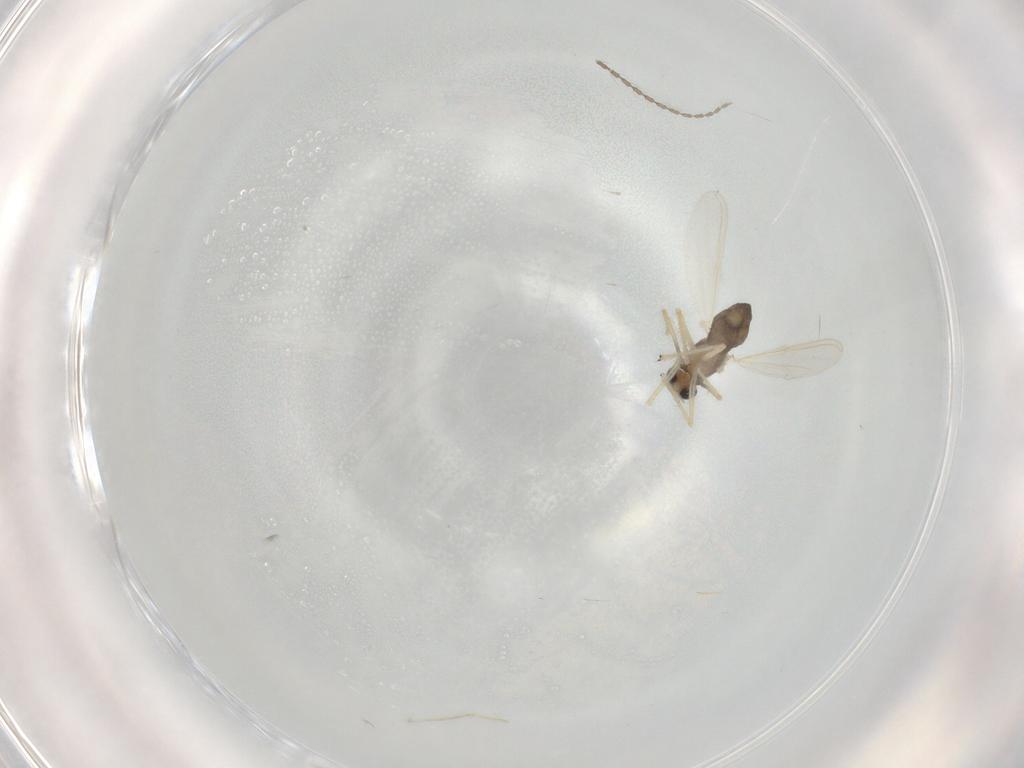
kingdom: Animalia
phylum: Arthropoda
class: Insecta
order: Diptera
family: Chironomidae
